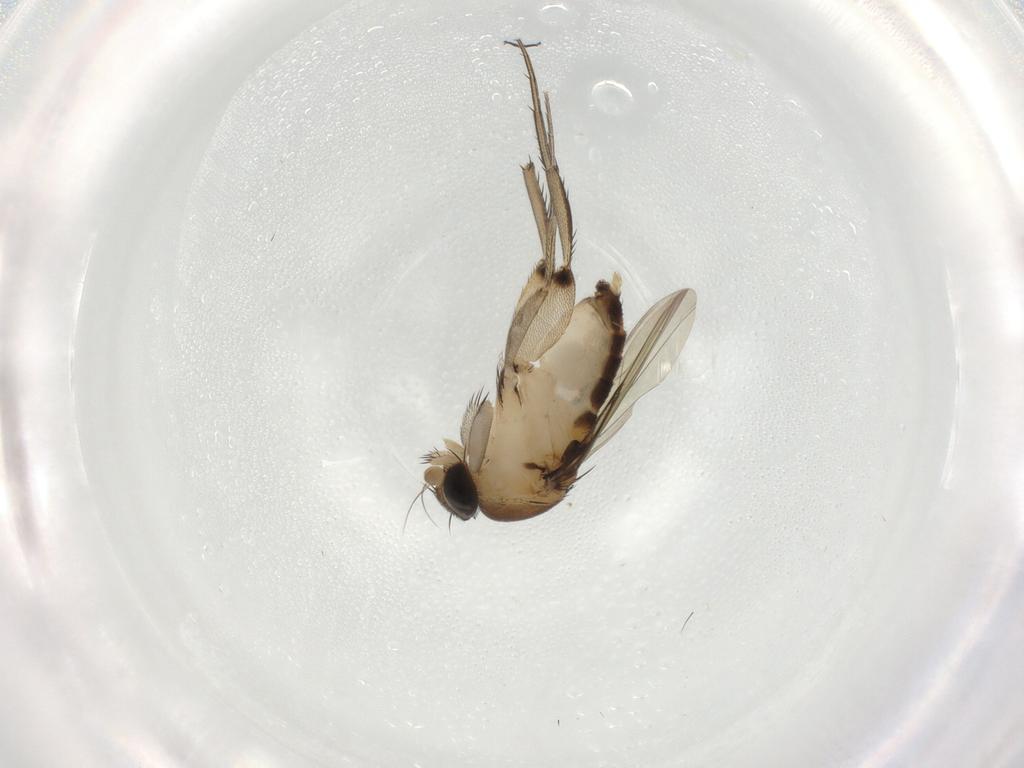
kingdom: Animalia
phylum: Arthropoda
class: Insecta
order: Diptera
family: Phoridae
